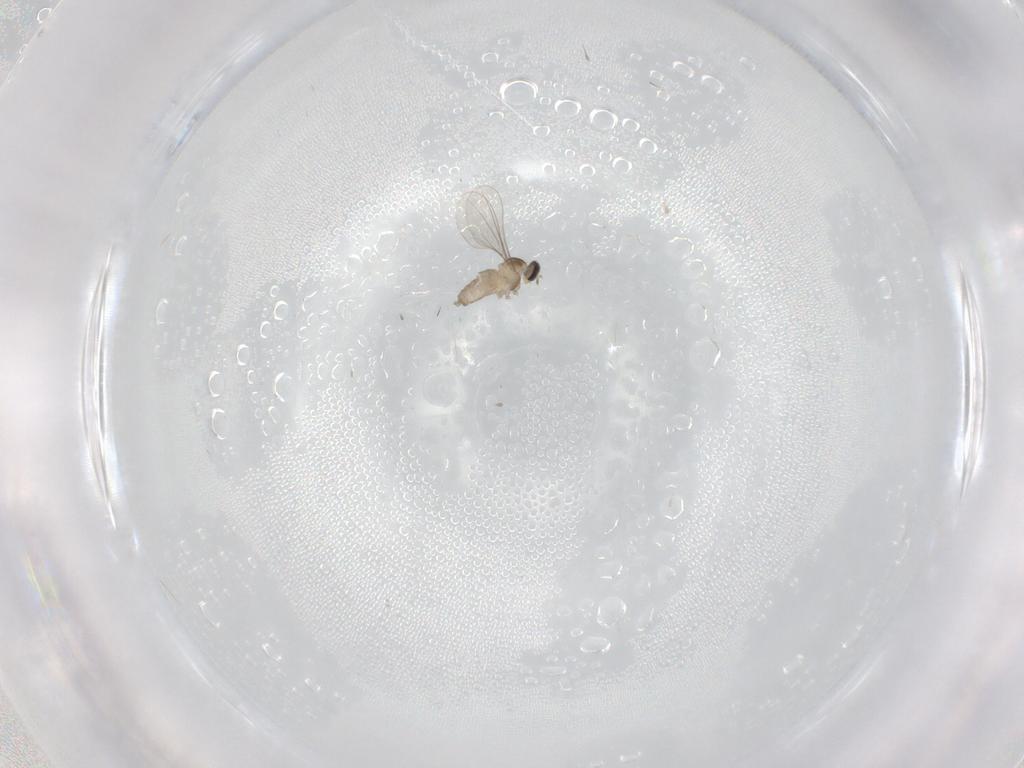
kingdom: Animalia
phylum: Arthropoda
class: Insecta
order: Diptera
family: Cecidomyiidae
